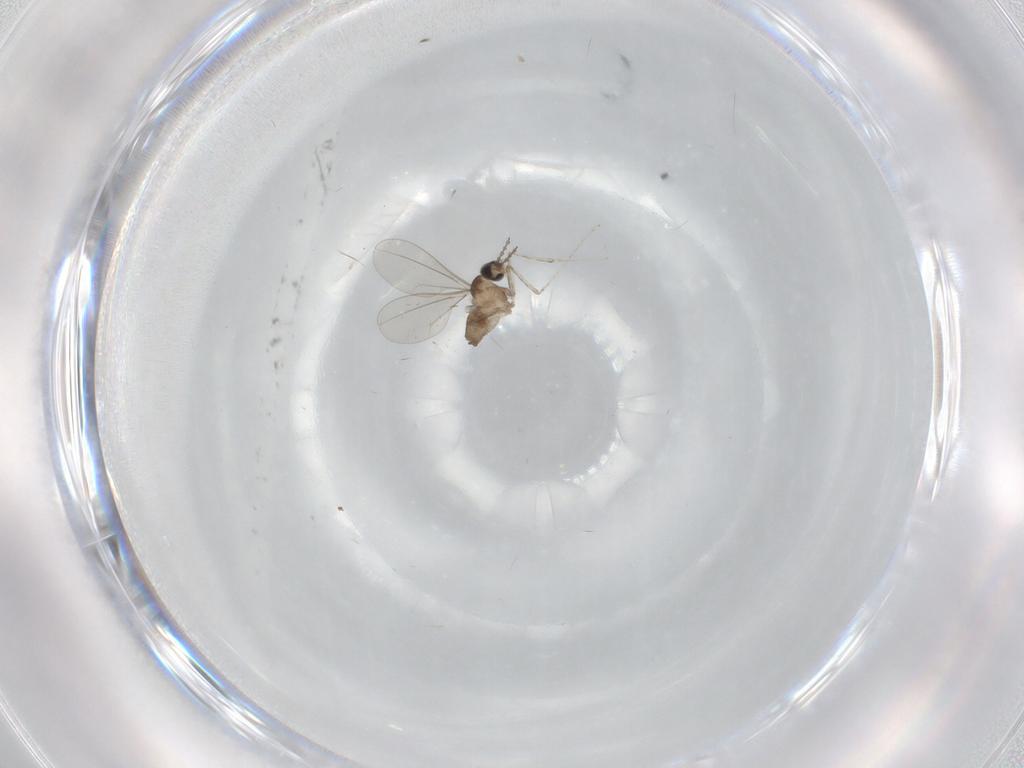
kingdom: Animalia
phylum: Arthropoda
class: Insecta
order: Diptera
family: Cecidomyiidae
